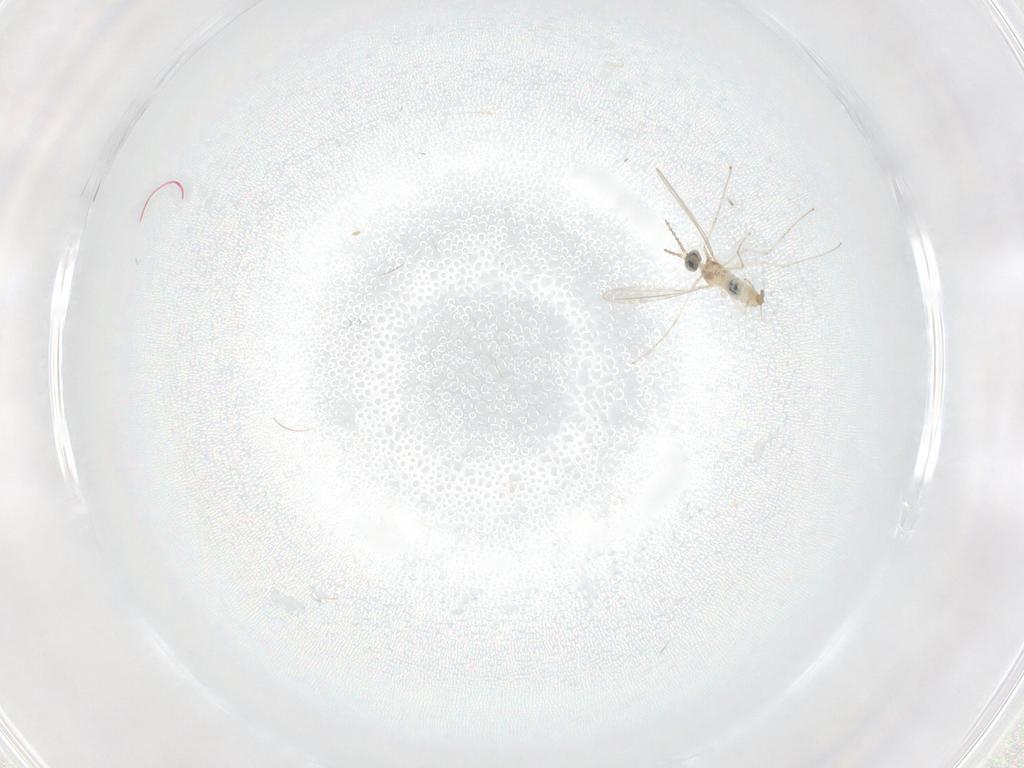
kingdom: Animalia
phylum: Arthropoda
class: Insecta
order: Diptera
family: Cecidomyiidae
